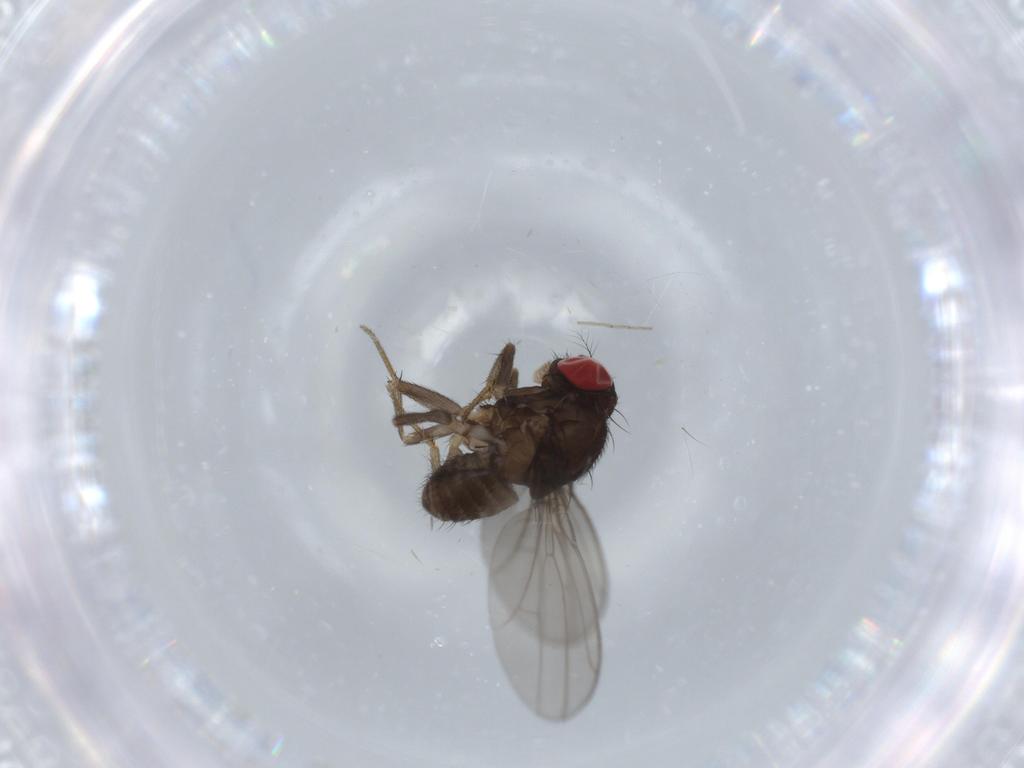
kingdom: Animalia
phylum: Arthropoda
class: Insecta
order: Diptera
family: Drosophilidae
